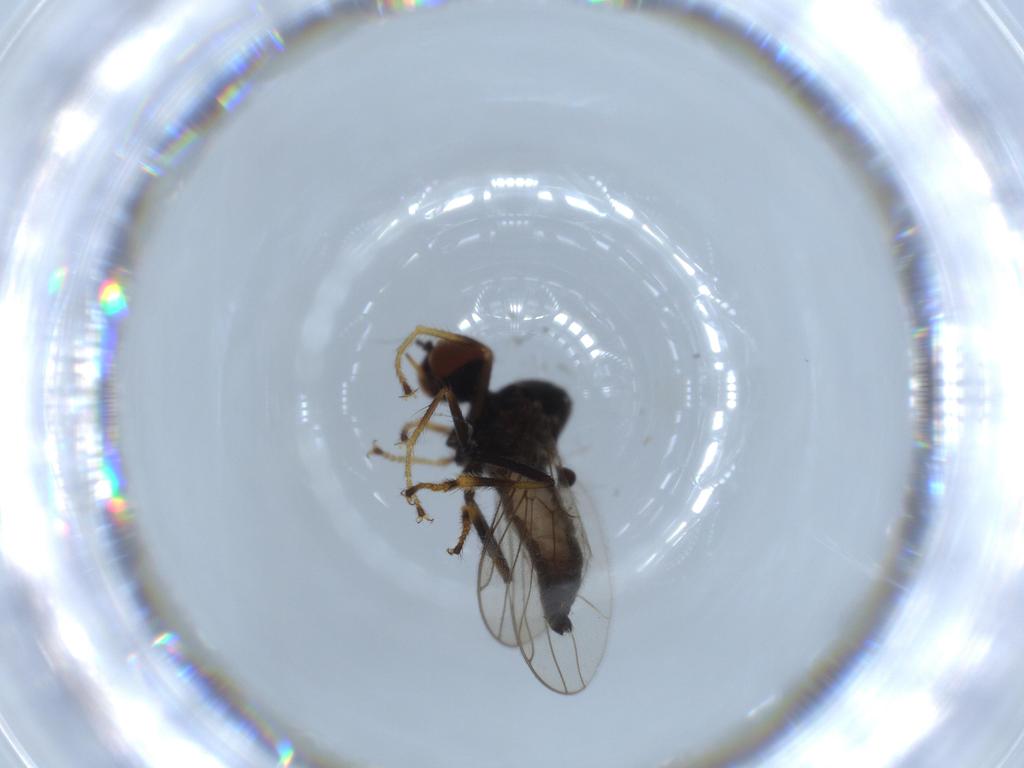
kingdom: Animalia
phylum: Arthropoda
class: Insecta
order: Diptera
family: Hybotidae
